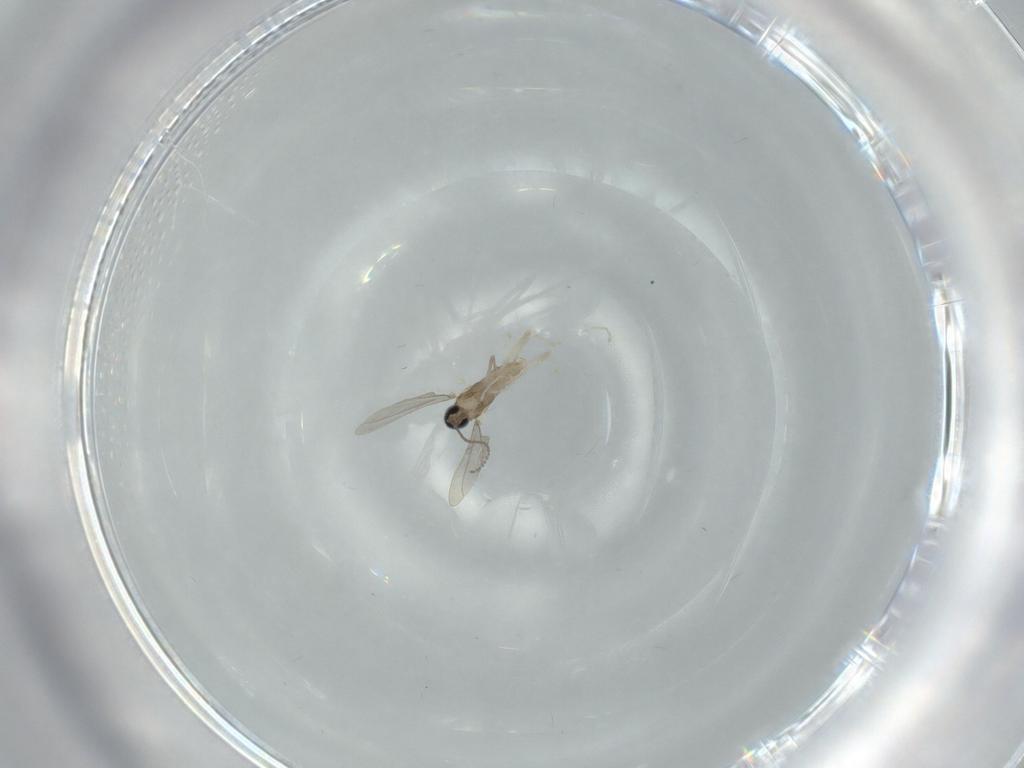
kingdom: Animalia
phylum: Arthropoda
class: Insecta
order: Diptera
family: Cecidomyiidae
